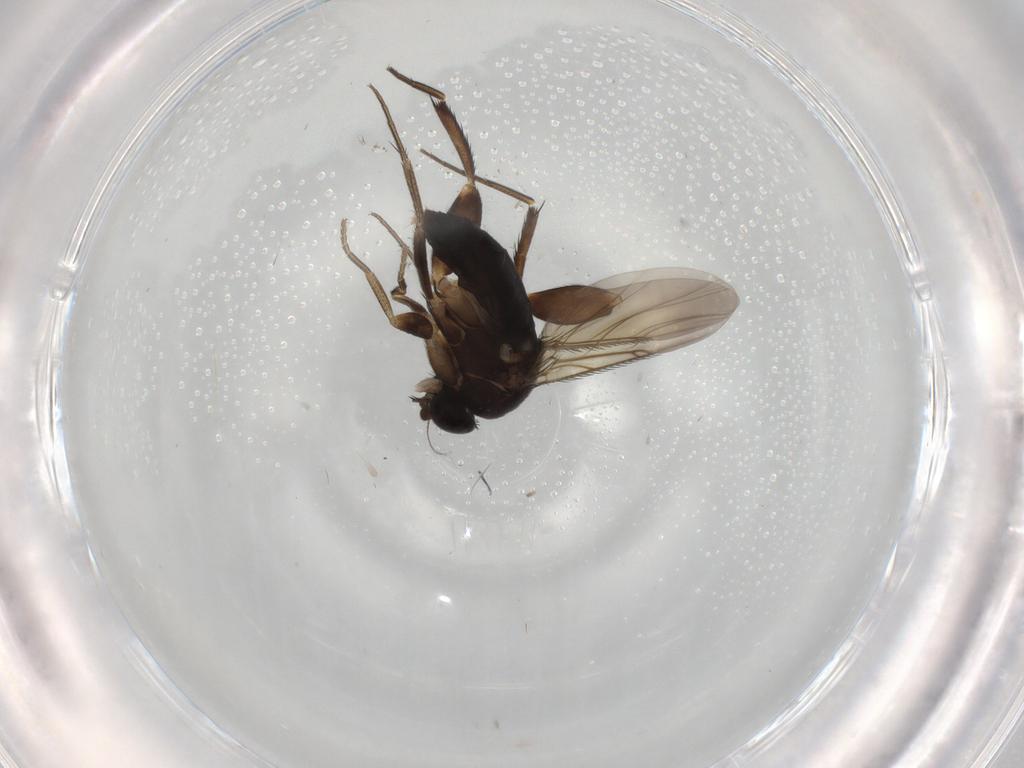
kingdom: Animalia
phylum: Arthropoda
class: Insecta
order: Diptera
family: Phoridae
